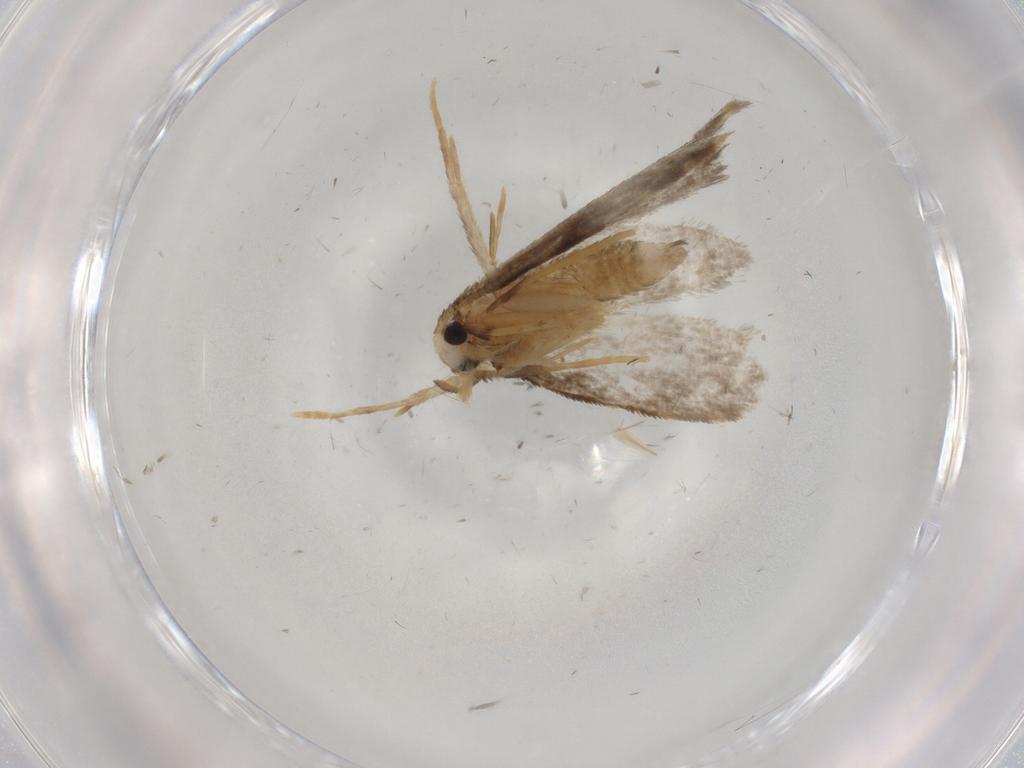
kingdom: Animalia
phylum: Arthropoda
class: Insecta
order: Lepidoptera
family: Psychidae
